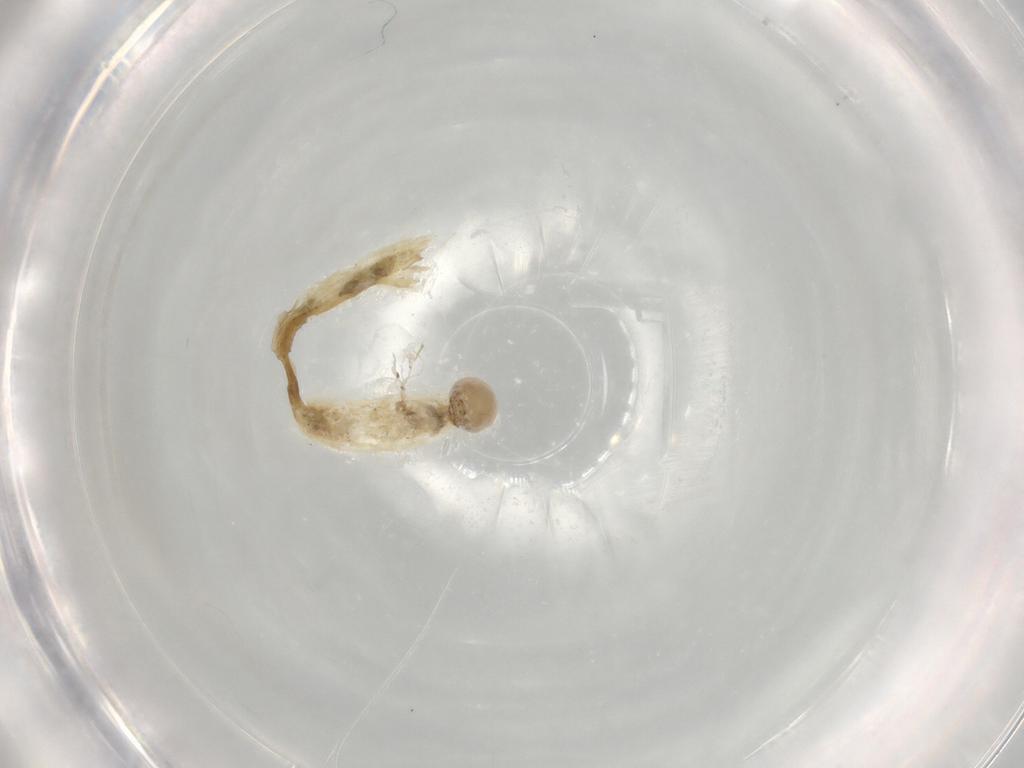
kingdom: Animalia
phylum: Arthropoda
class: Insecta
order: Diptera
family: Chironomidae
